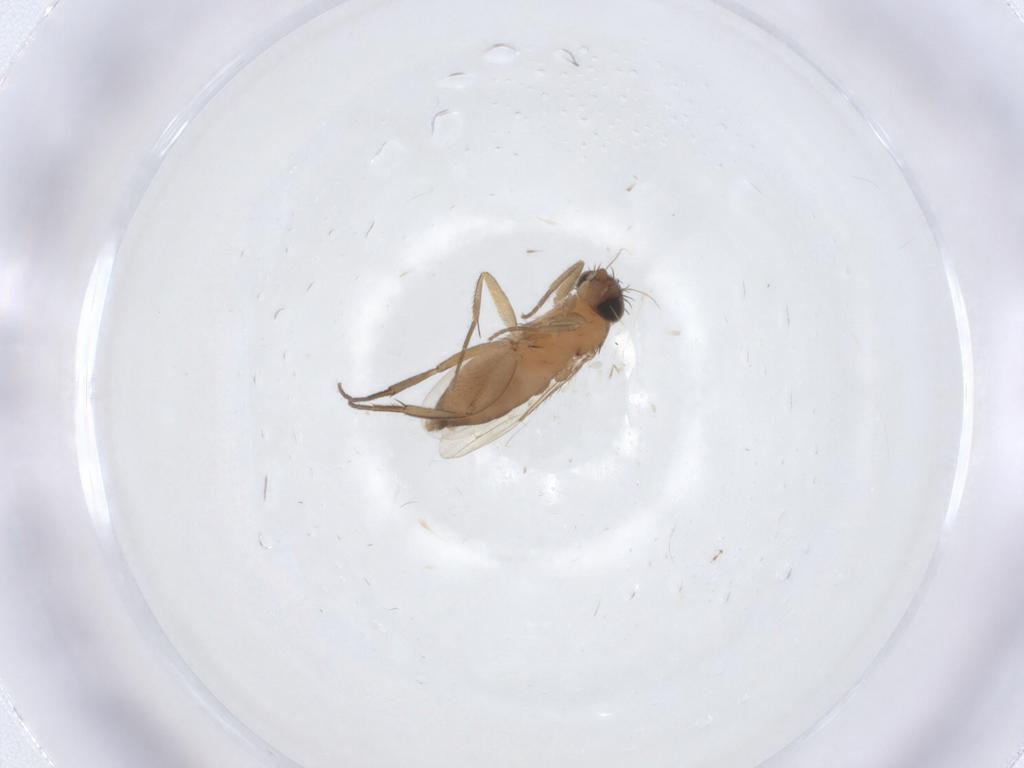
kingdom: Animalia
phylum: Arthropoda
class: Insecta
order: Diptera
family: Phoridae
